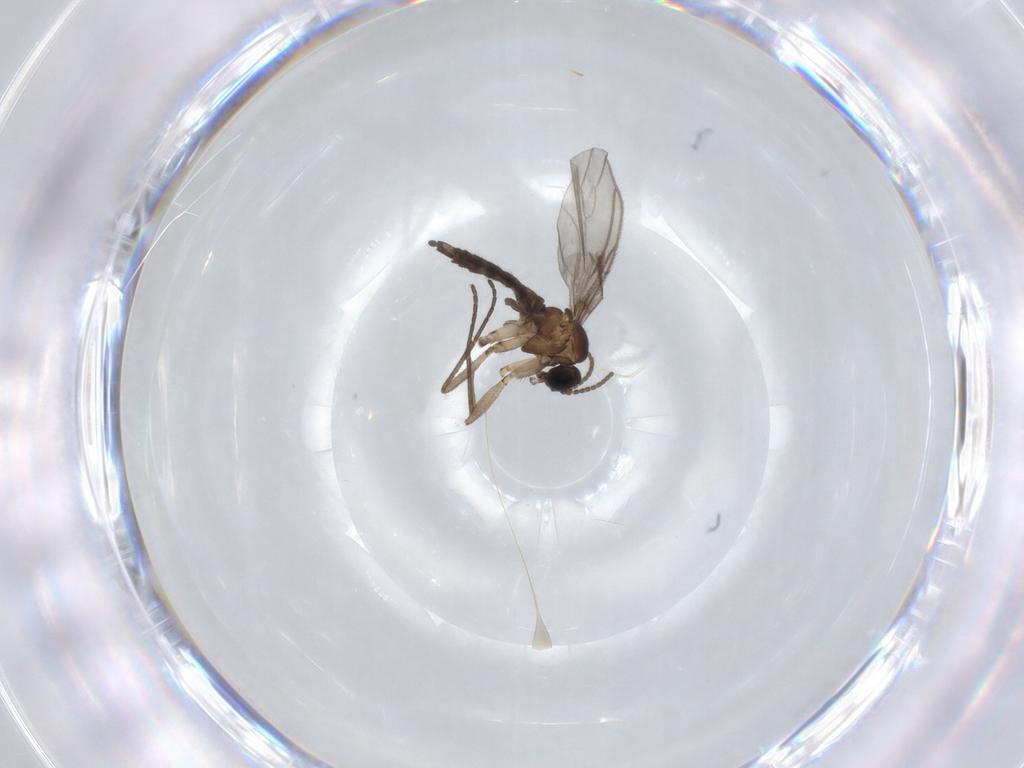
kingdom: Animalia
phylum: Arthropoda
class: Insecta
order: Diptera
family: Sciaridae
